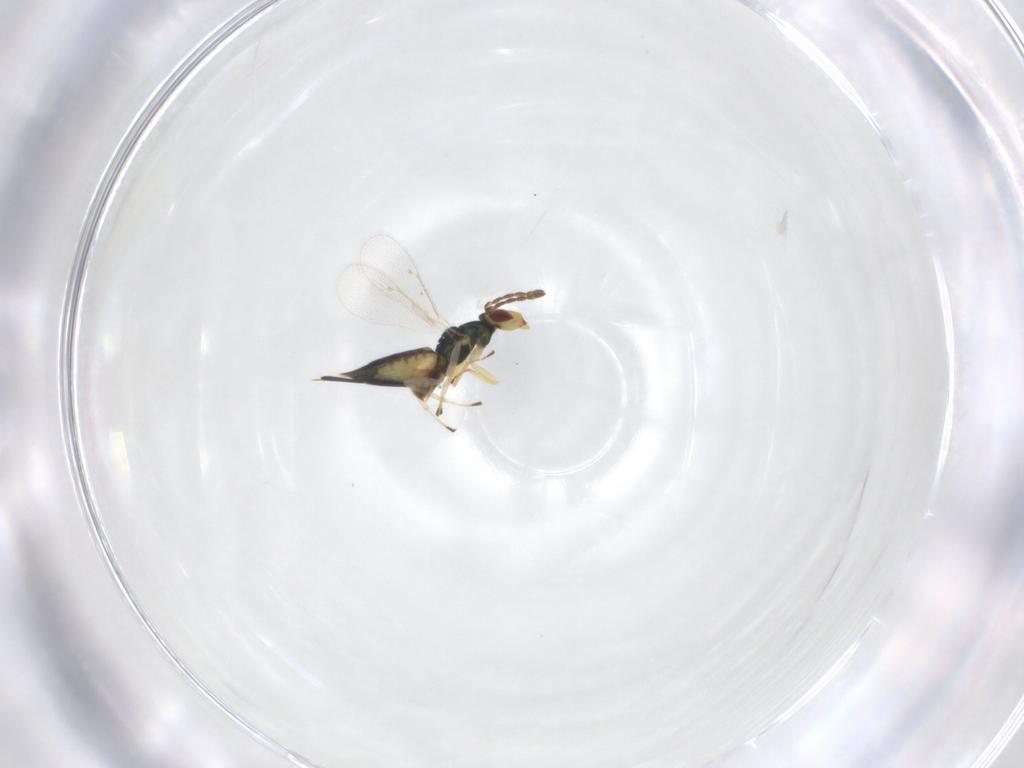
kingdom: Animalia
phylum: Arthropoda
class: Insecta
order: Hymenoptera
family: Eulophidae
